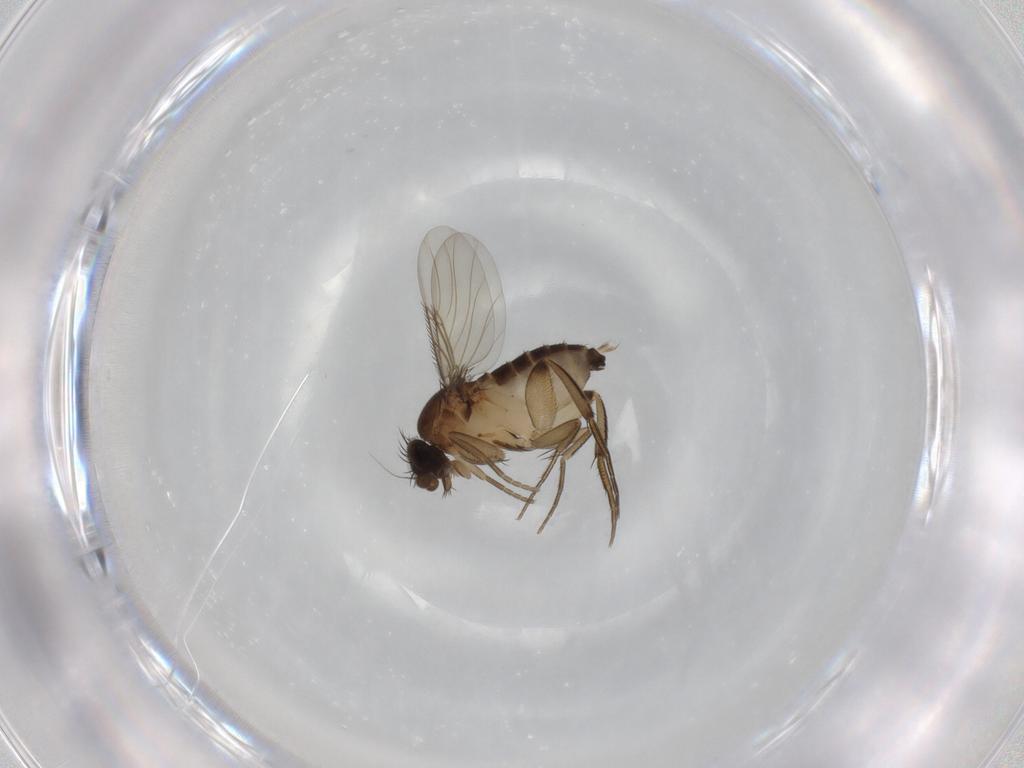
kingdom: Animalia
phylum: Arthropoda
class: Insecta
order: Diptera
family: Phoridae
